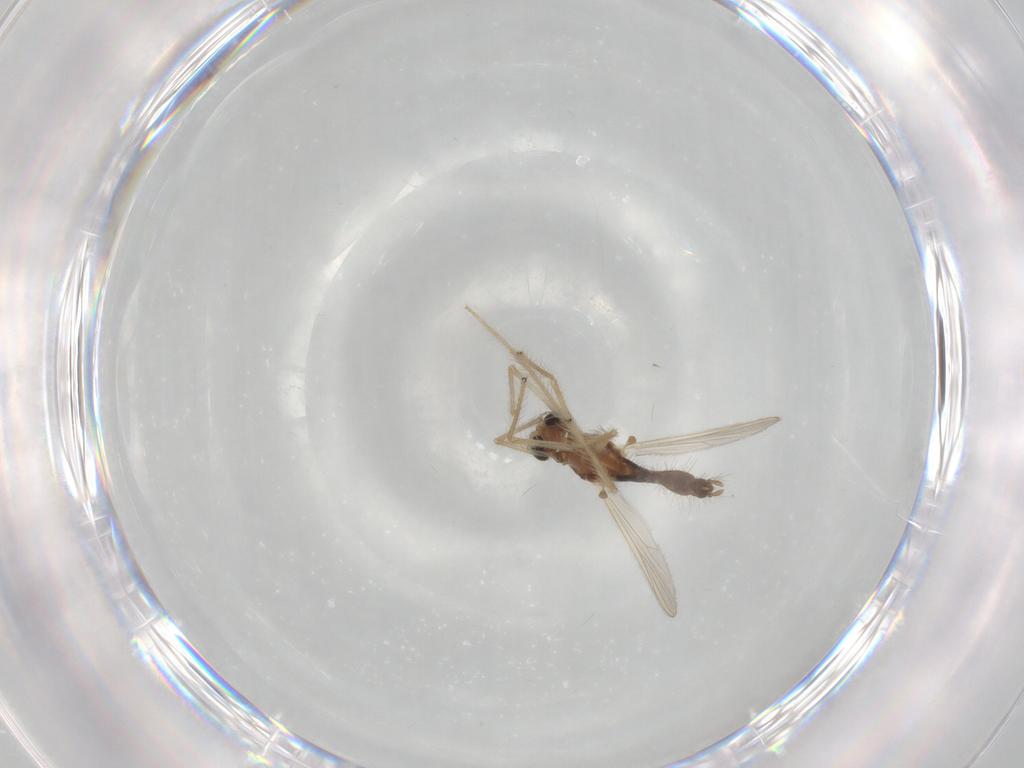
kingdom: Animalia
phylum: Arthropoda
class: Insecta
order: Diptera
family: Chironomidae
